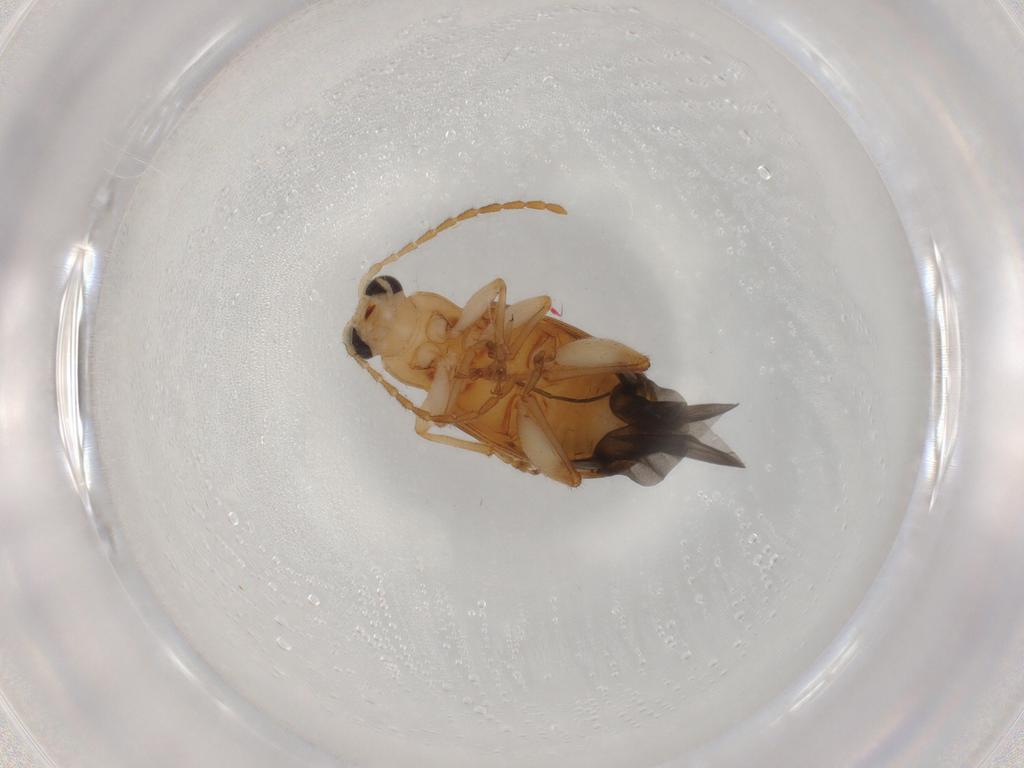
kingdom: Animalia
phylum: Arthropoda
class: Insecta
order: Coleoptera
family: Chrysomelidae
